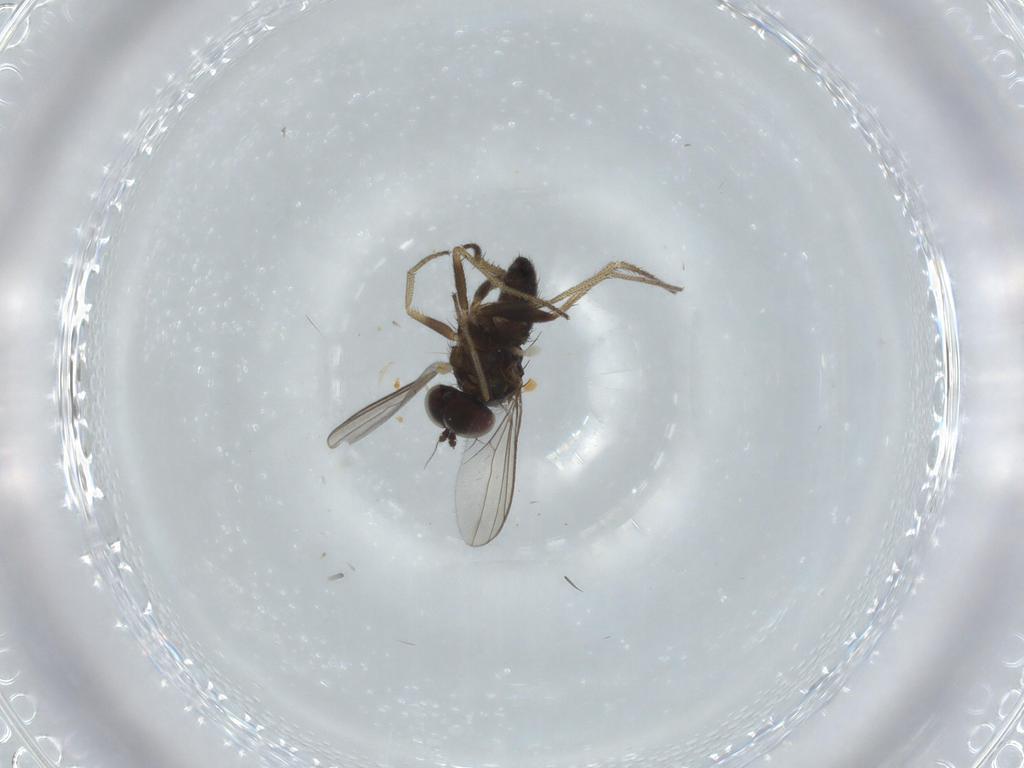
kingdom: Animalia
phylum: Arthropoda
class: Insecta
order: Diptera
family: Dolichopodidae
